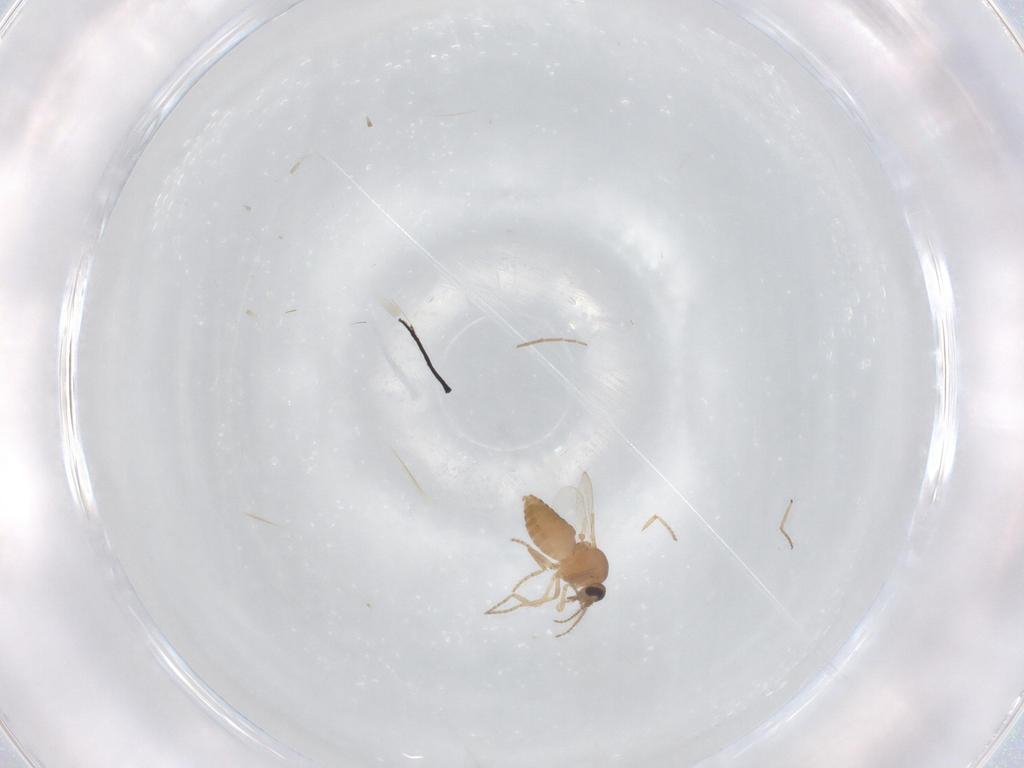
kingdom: Animalia
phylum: Arthropoda
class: Insecta
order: Diptera
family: Ceratopogonidae
